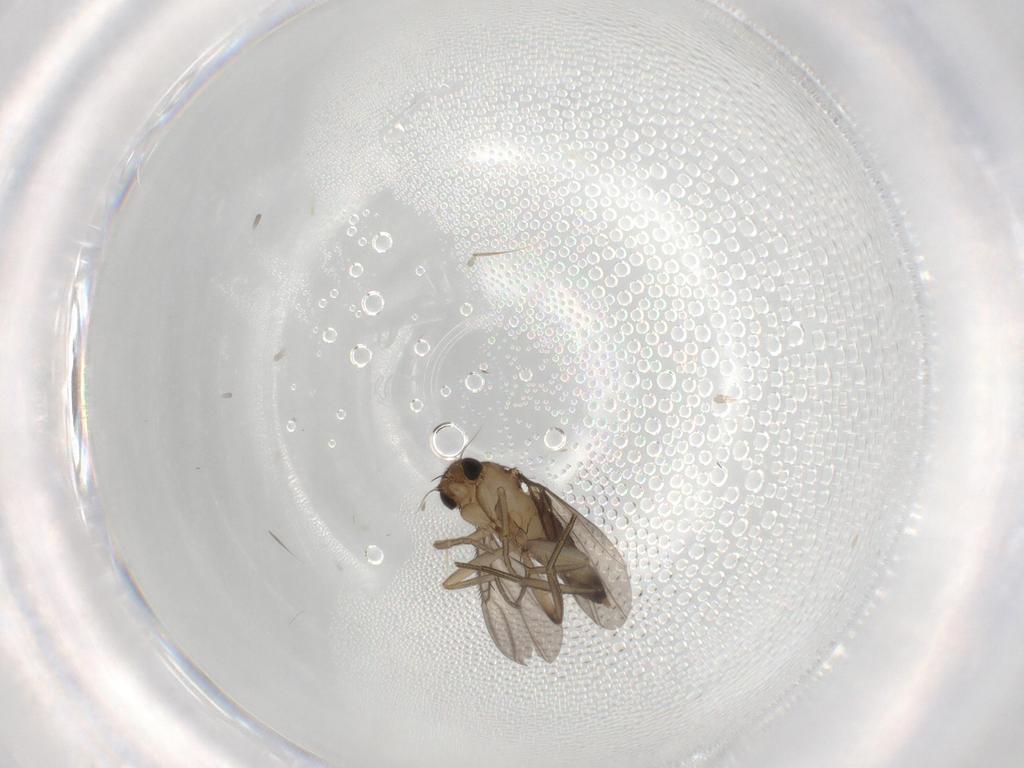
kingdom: Animalia
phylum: Arthropoda
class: Insecta
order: Diptera
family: Phoridae
